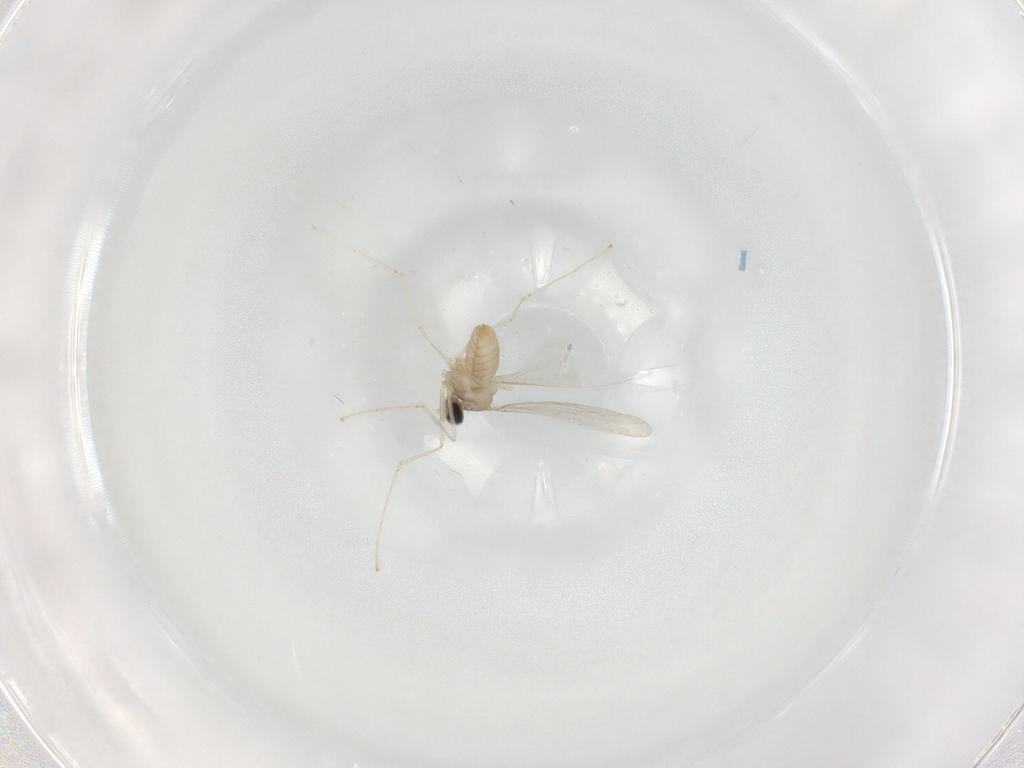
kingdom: Animalia
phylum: Arthropoda
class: Insecta
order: Diptera
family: Cecidomyiidae
